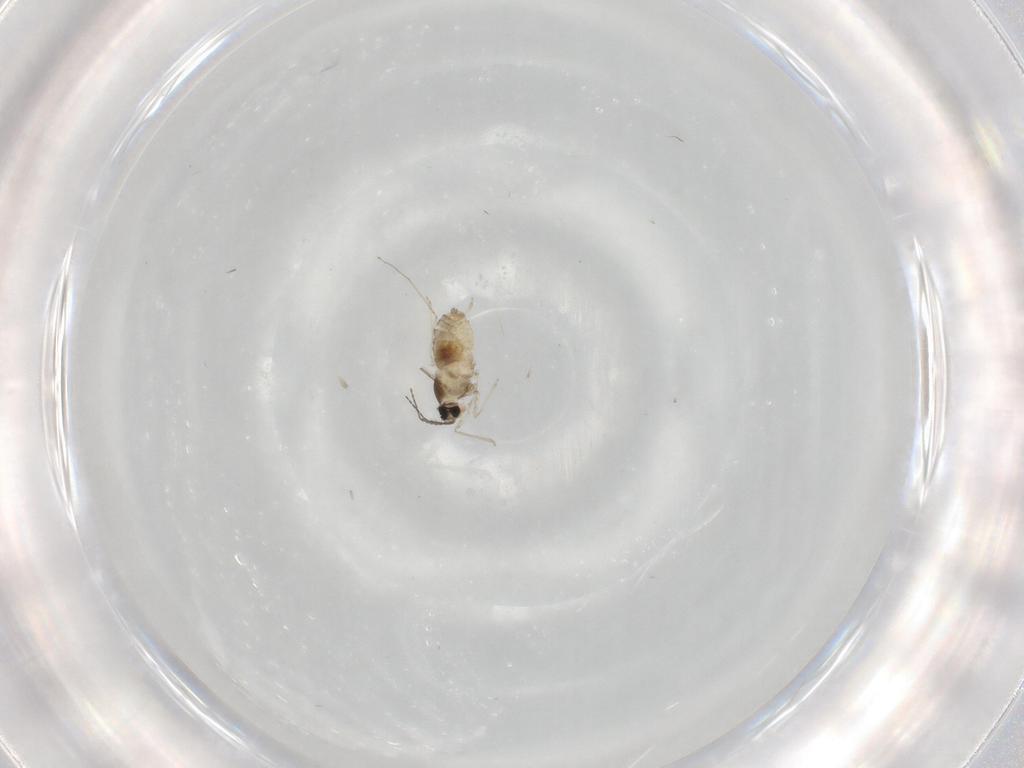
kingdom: Animalia
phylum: Arthropoda
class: Insecta
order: Diptera
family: Cecidomyiidae
